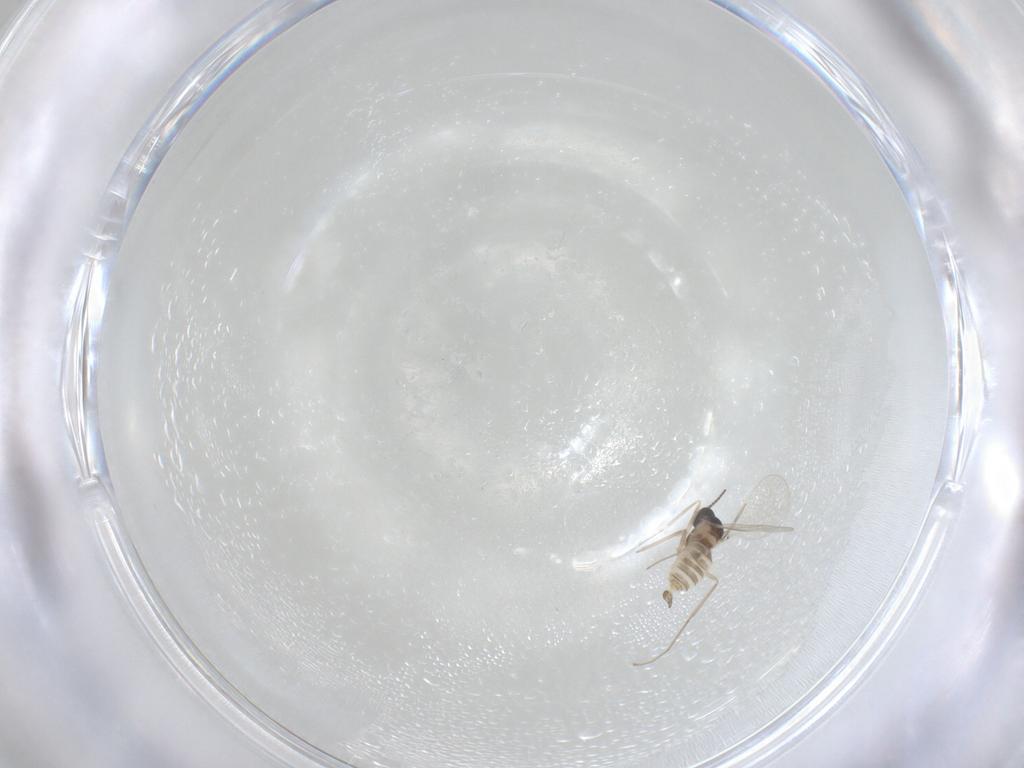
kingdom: Animalia
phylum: Arthropoda
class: Insecta
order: Diptera
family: Cecidomyiidae
